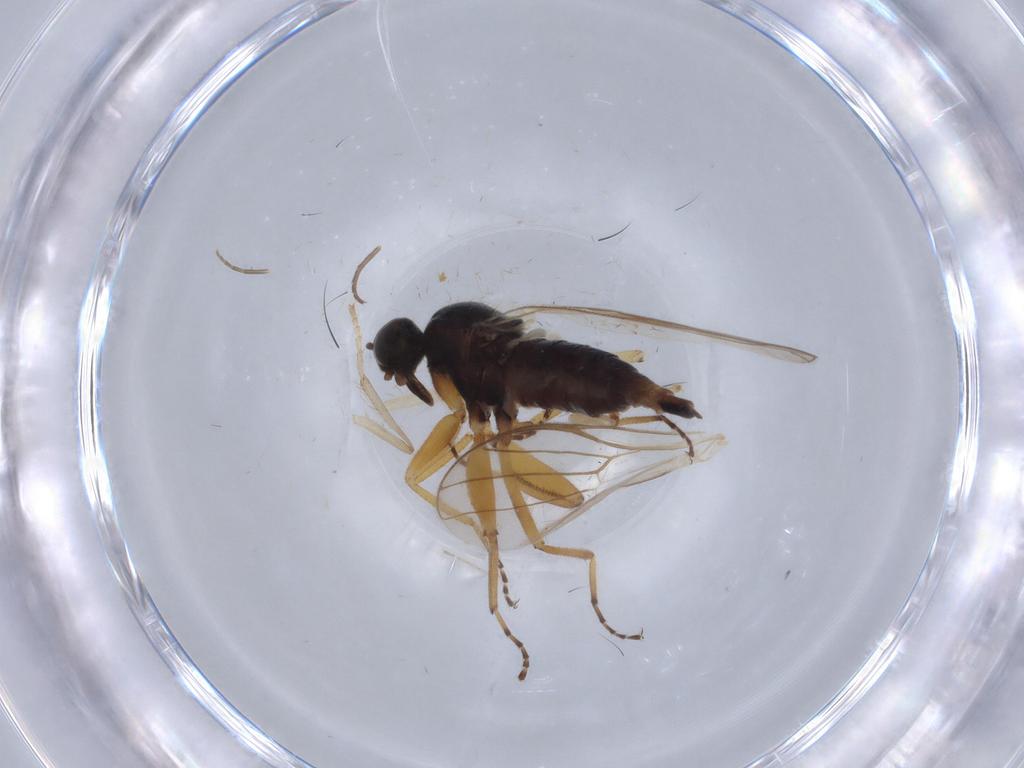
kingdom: Animalia
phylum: Arthropoda
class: Insecta
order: Diptera
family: Hybotidae
